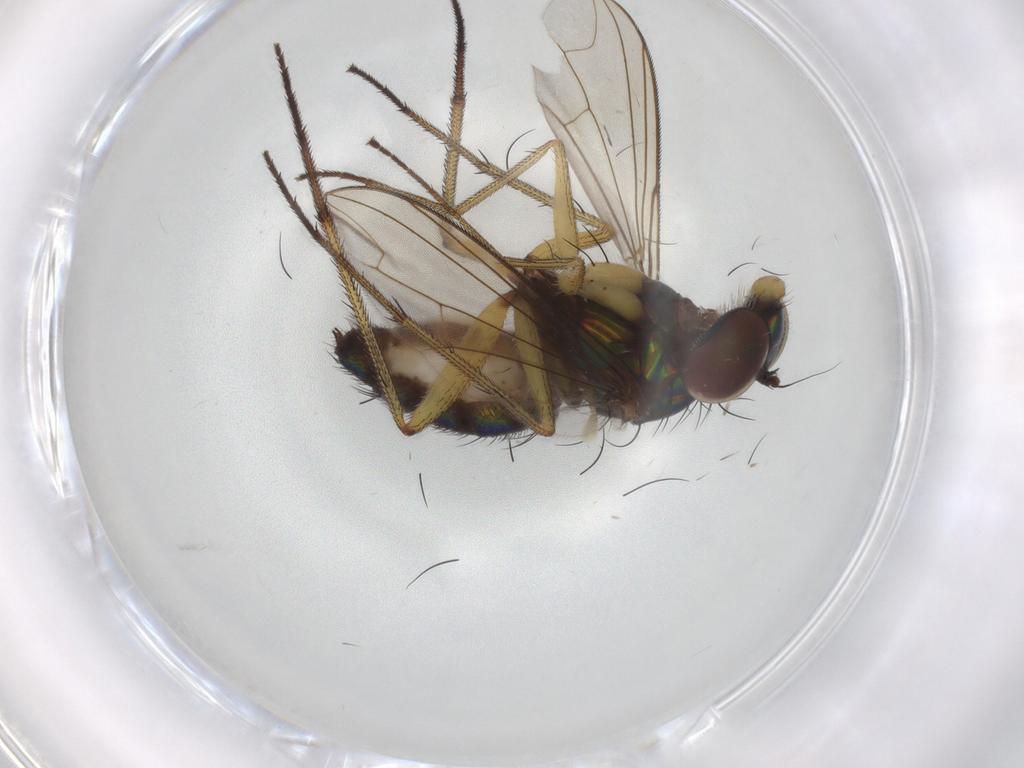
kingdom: Animalia
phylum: Arthropoda
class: Insecta
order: Diptera
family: Dolichopodidae
